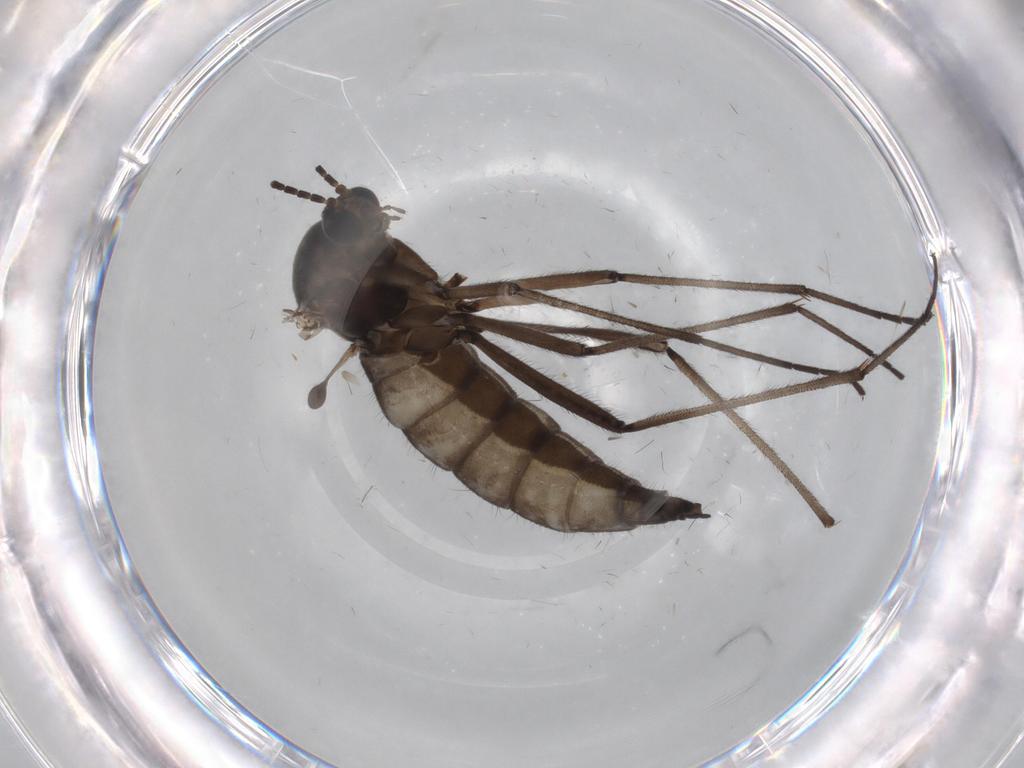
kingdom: Animalia
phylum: Arthropoda
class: Insecta
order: Diptera
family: Sciaridae
